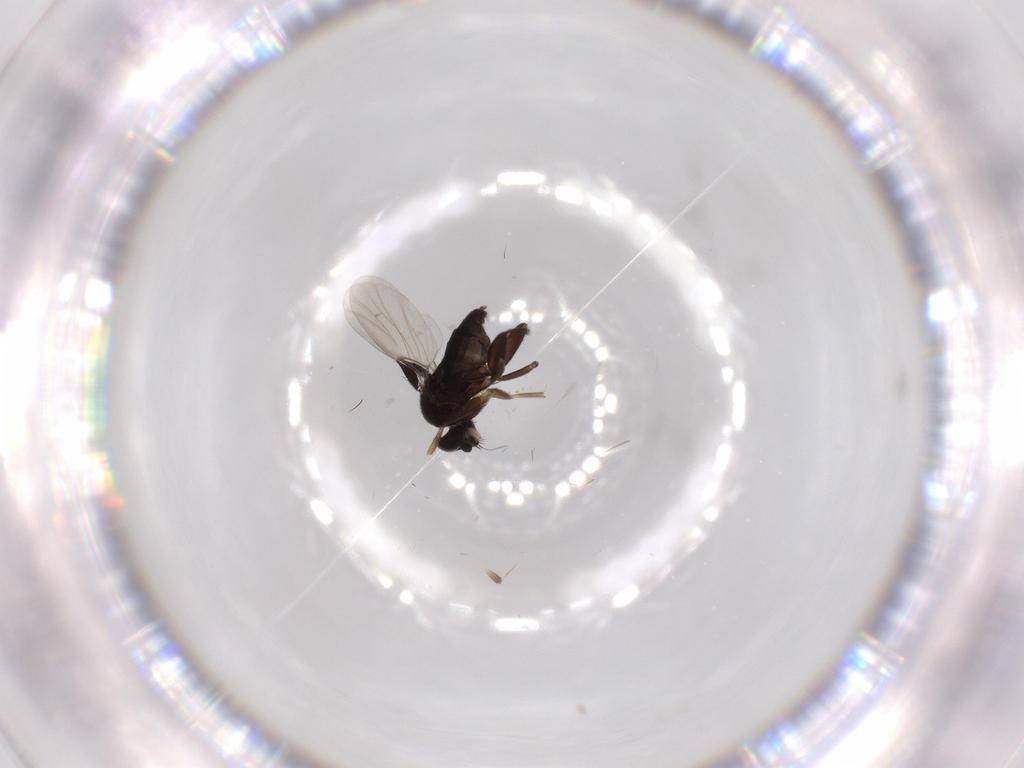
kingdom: Animalia
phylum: Arthropoda
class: Insecta
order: Diptera
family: Phoridae
